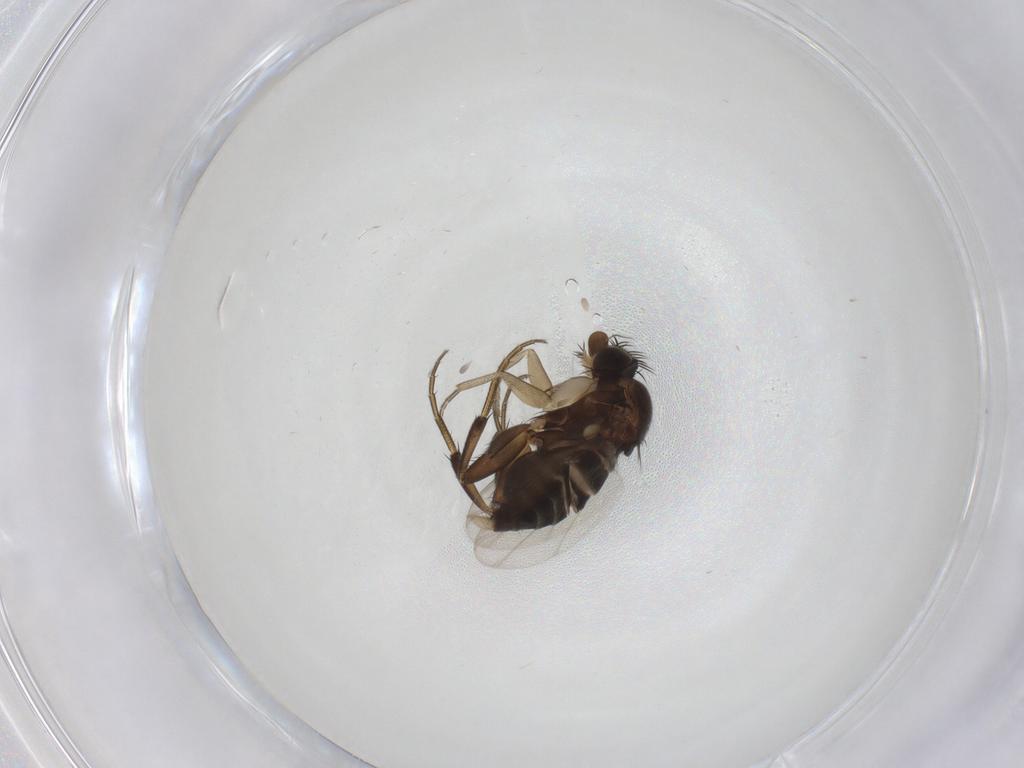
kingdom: Animalia
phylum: Arthropoda
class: Insecta
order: Diptera
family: Phoridae
